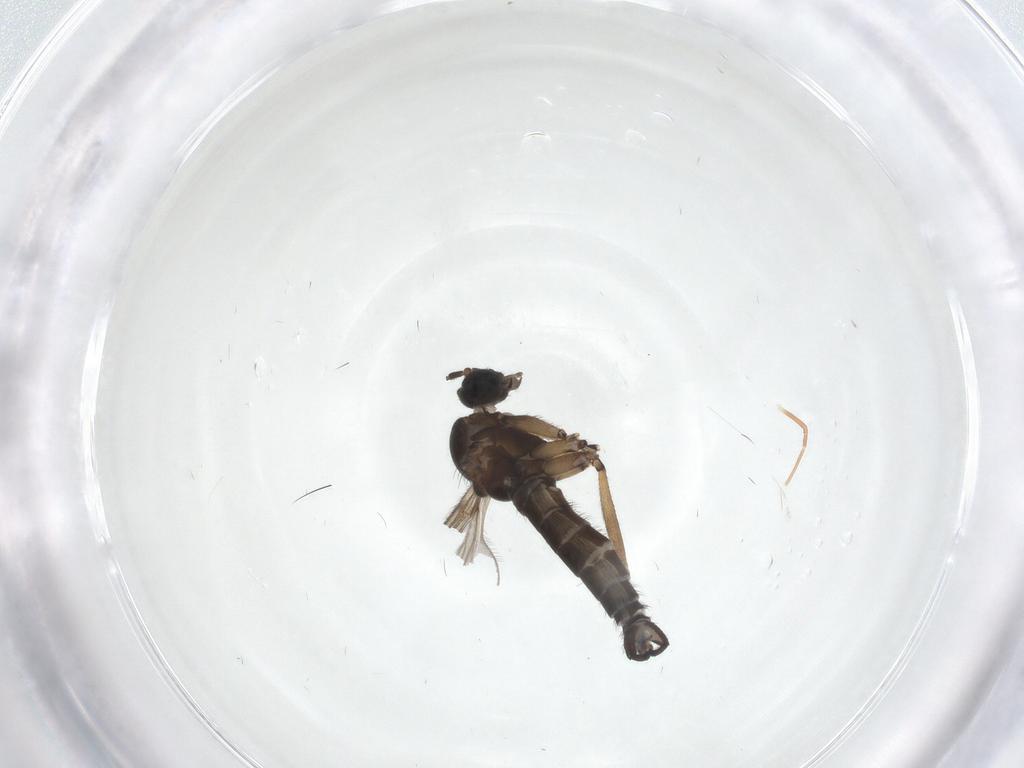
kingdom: Animalia
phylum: Arthropoda
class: Insecta
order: Diptera
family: Sciaridae
